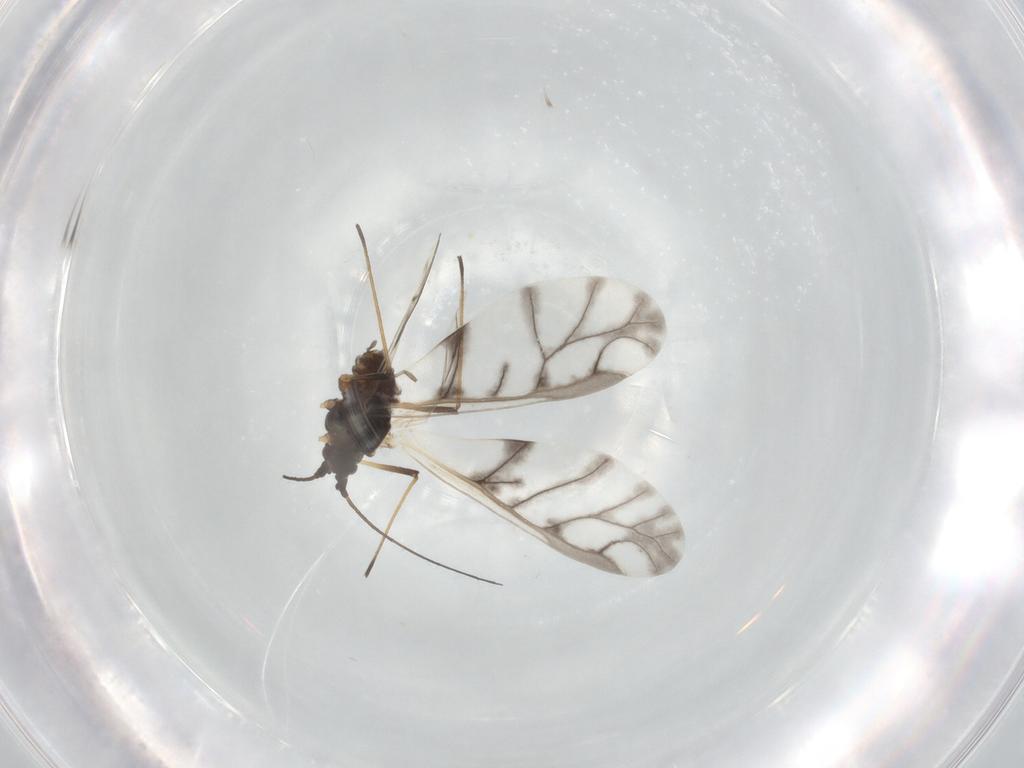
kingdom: Animalia
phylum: Arthropoda
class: Insecta
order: Hemiptera
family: Aphididae
